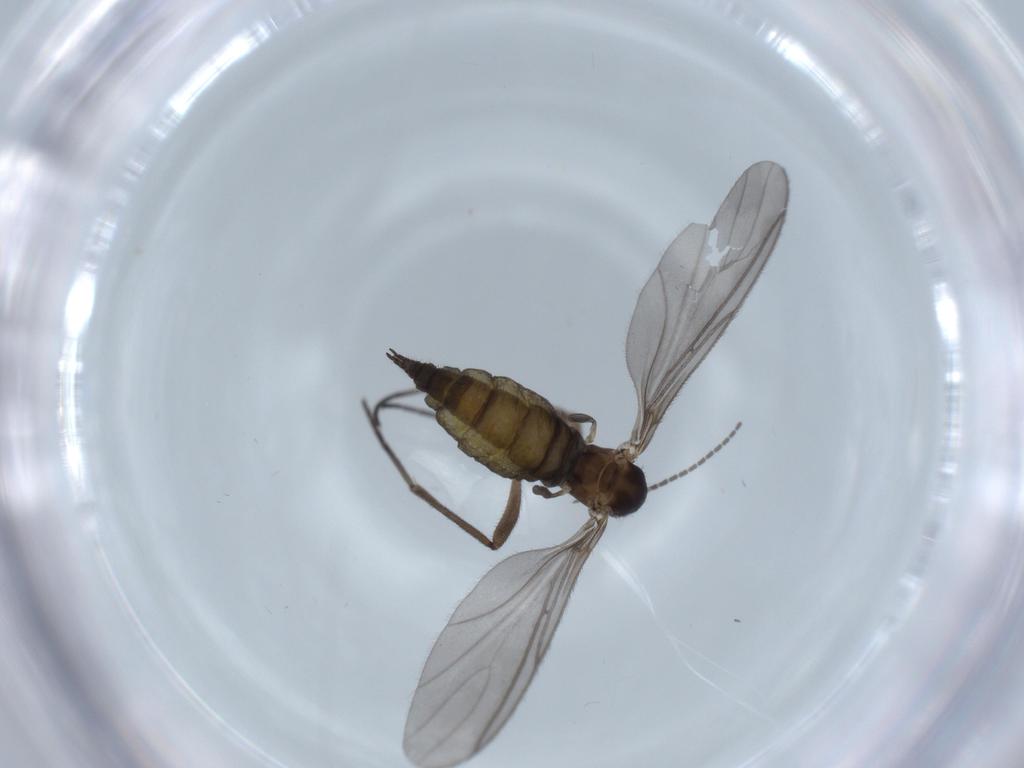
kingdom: Animalia
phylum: Arthropoda
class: Insecta
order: Diptera
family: Sciaridae
